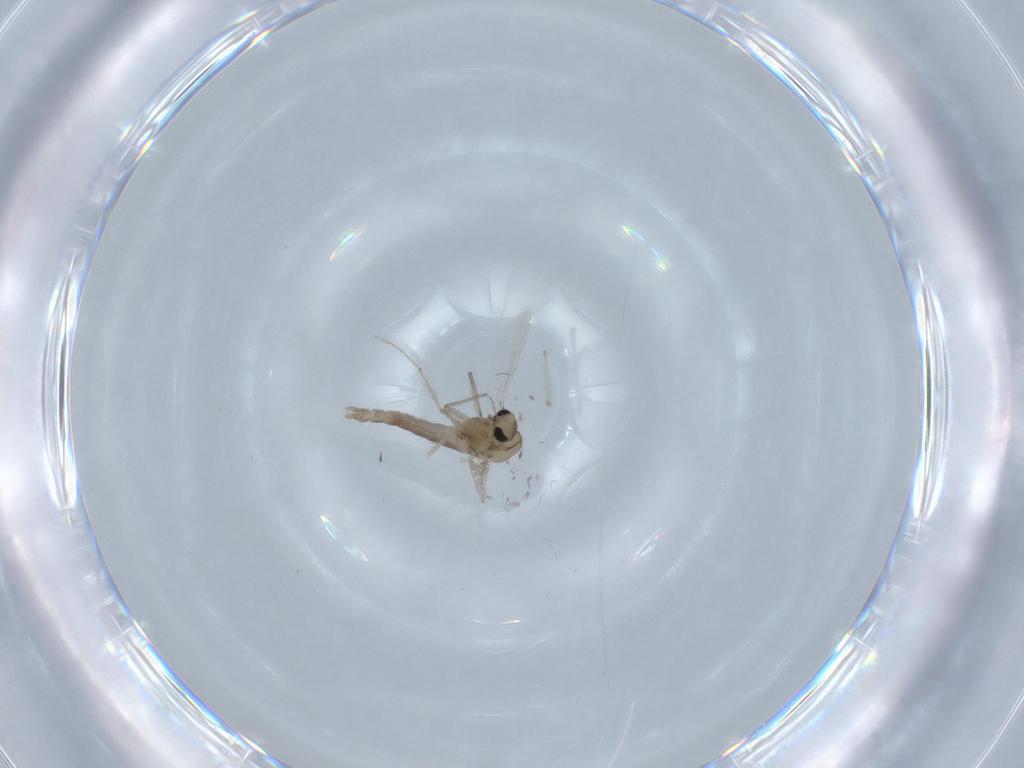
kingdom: Animalia
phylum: Arthropoda
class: Insecta
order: Diptera
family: Chironomidae
